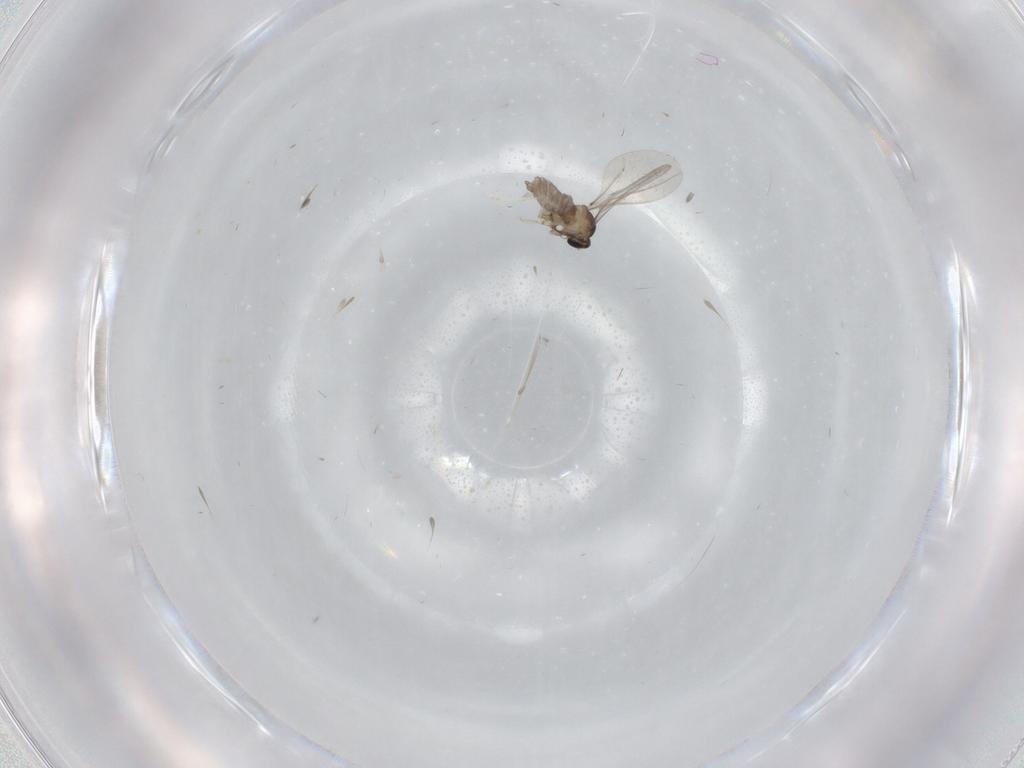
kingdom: Animalia
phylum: Arthropoda
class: Insecta
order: Diptera
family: Cecidomyiidae
